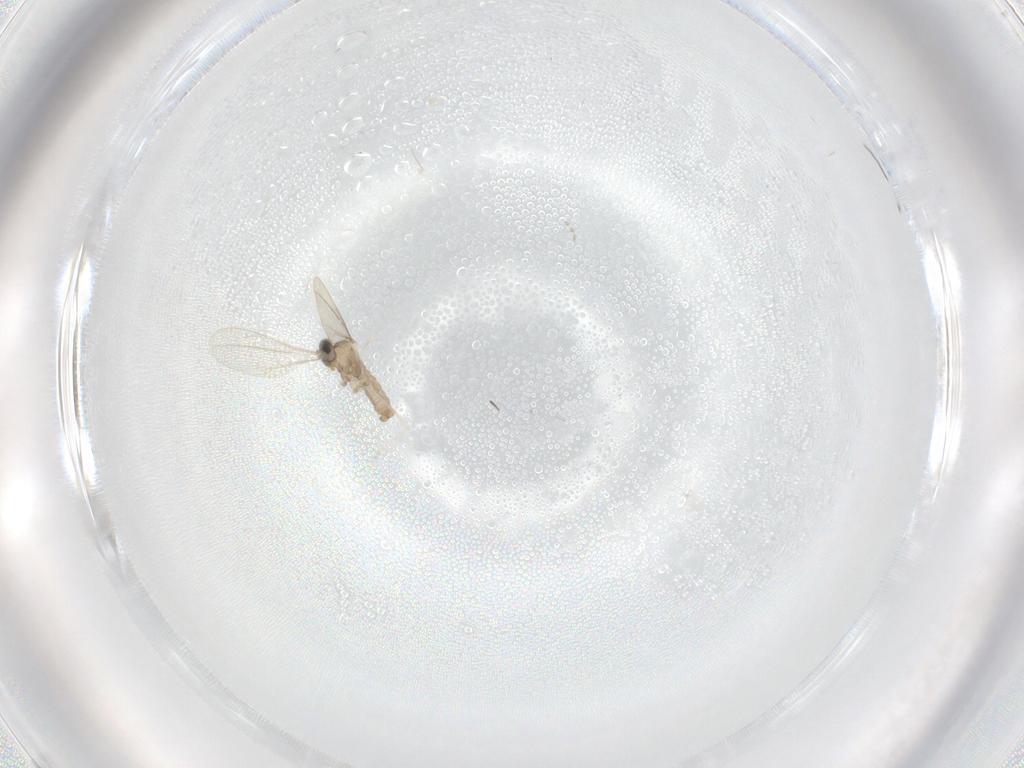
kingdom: Animalia
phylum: Arthropoda
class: Insecta
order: Diptera
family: Cecidomyiidae
